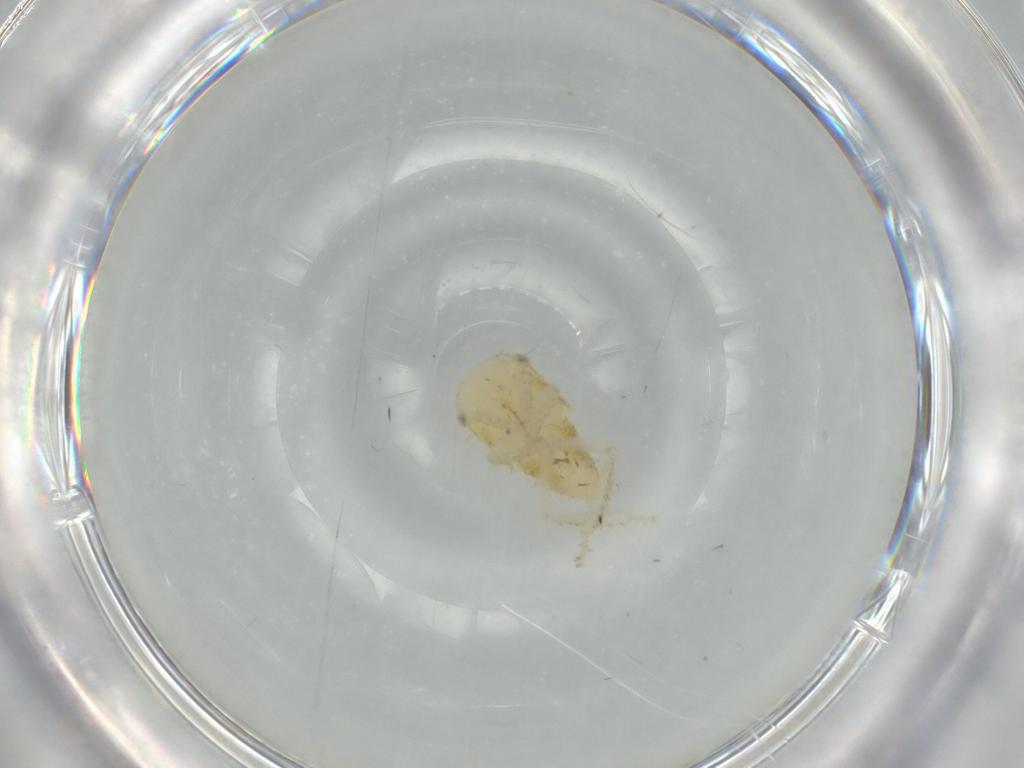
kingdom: Animalia
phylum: Arthropoda
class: Insecta
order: Hemiptera
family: Cicadellidae
